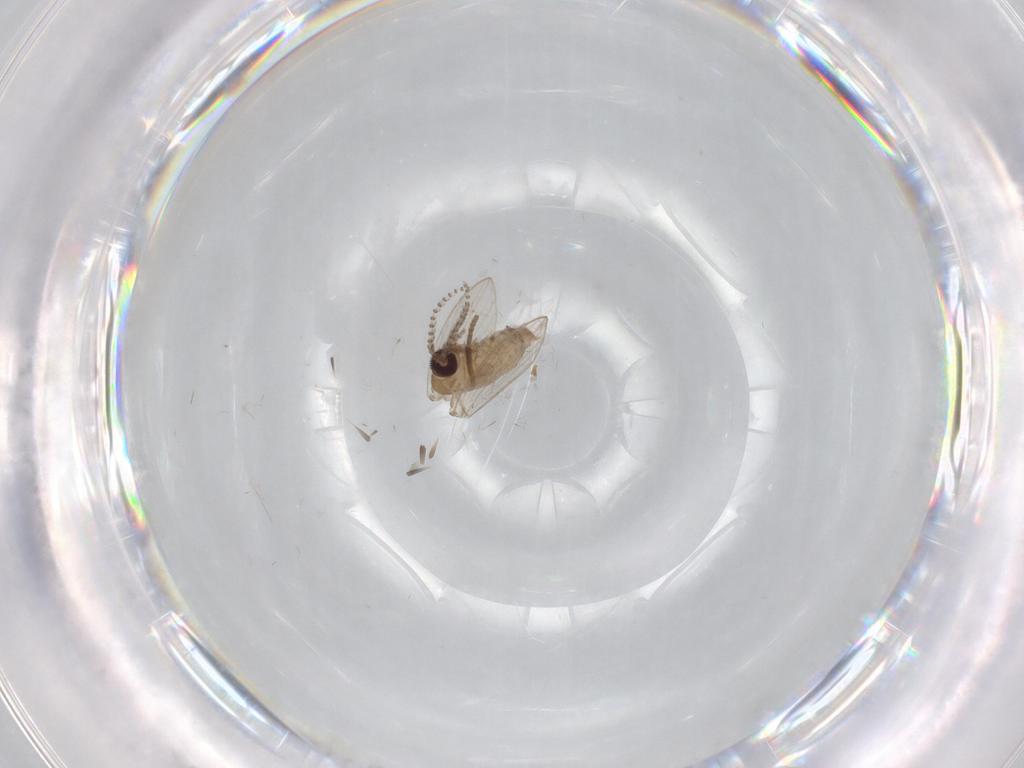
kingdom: Animalia
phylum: Arthropoda
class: Insecta
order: Diptera
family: Psychodidae
